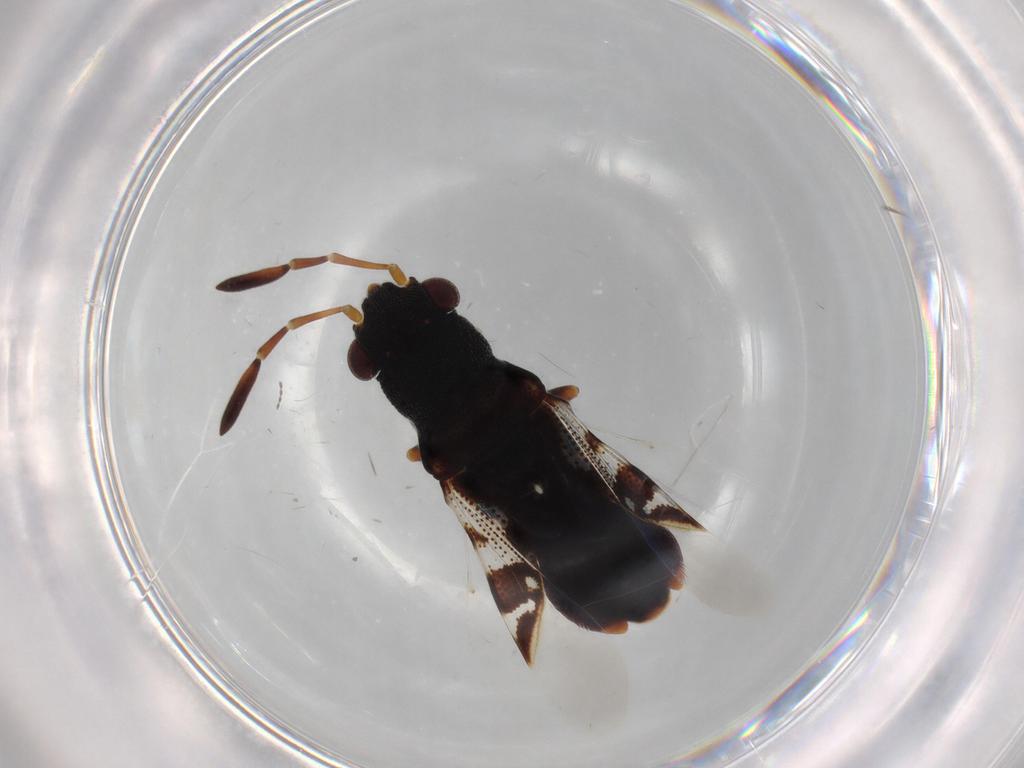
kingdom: Animalia
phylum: Arthropoda
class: Insecta
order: Hemiptera
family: Rhyparochromidae
